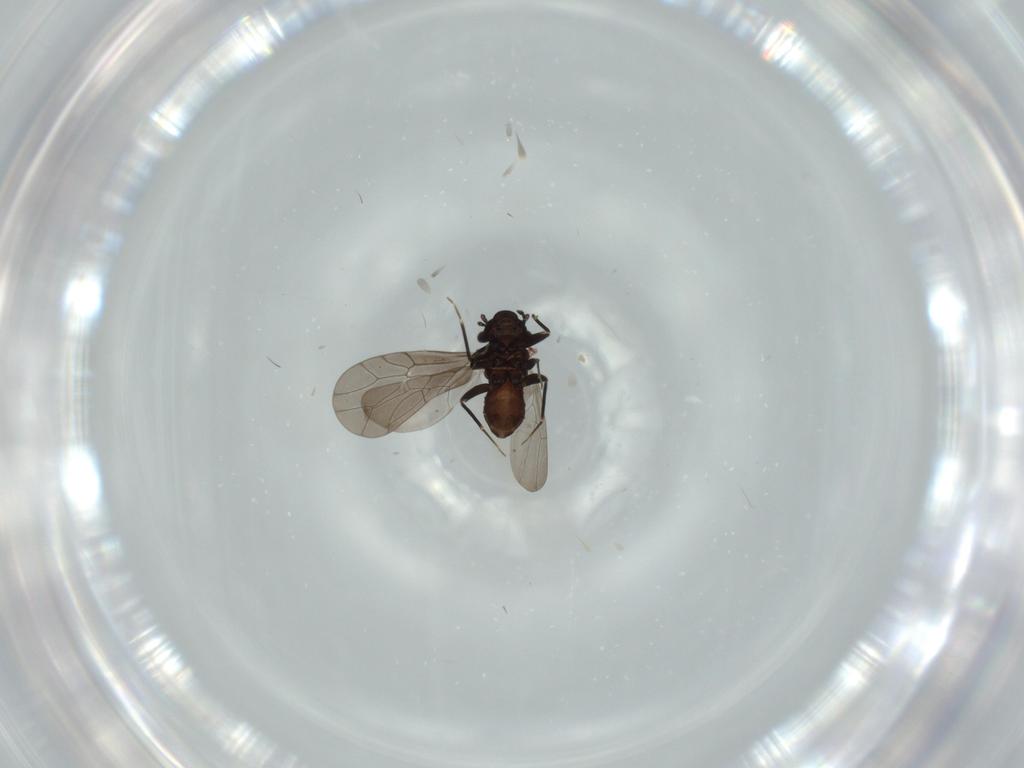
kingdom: Animalia
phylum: Arthropoda
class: Insecta
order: Psocodea
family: Lepidopsocidae
